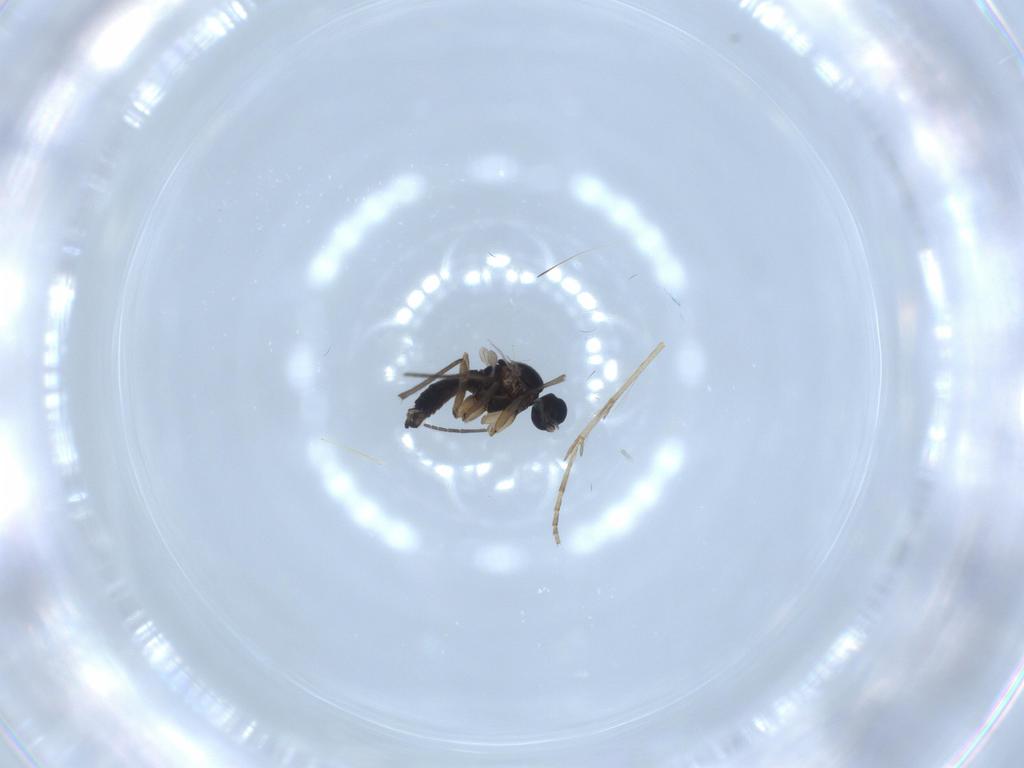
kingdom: Animalia
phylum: Arthropoda
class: Insecta
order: Diptera
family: Sciaridae
